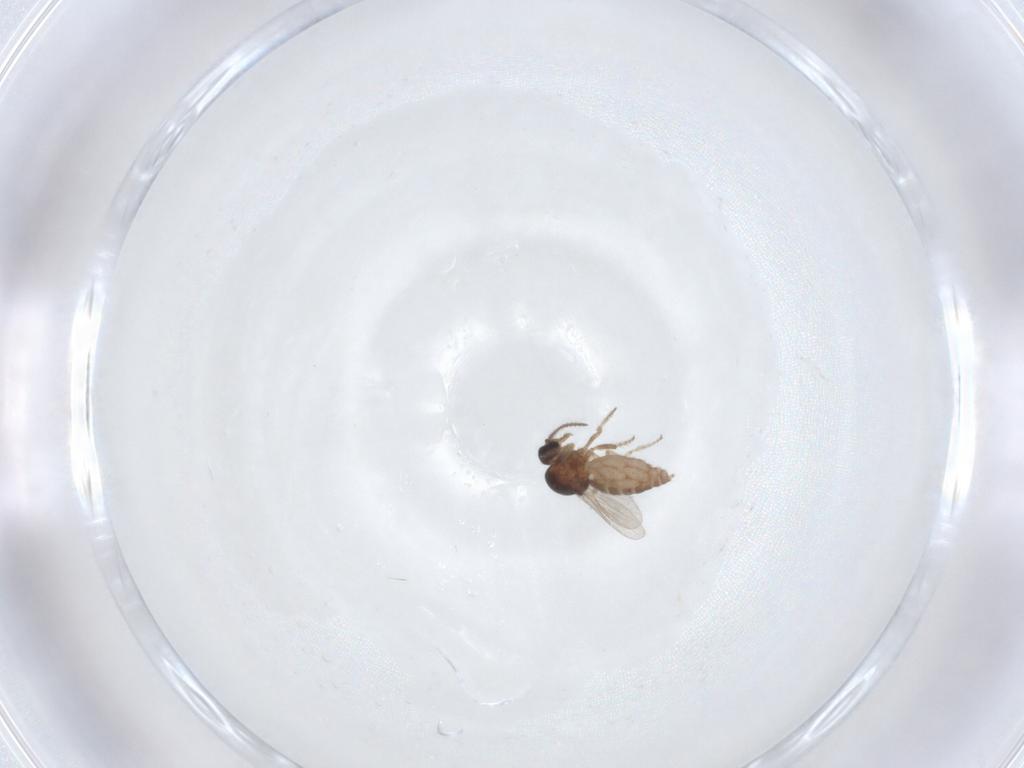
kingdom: Animalia
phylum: Arthropoda
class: Insecta
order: Diptera
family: Ceratopogonidae
